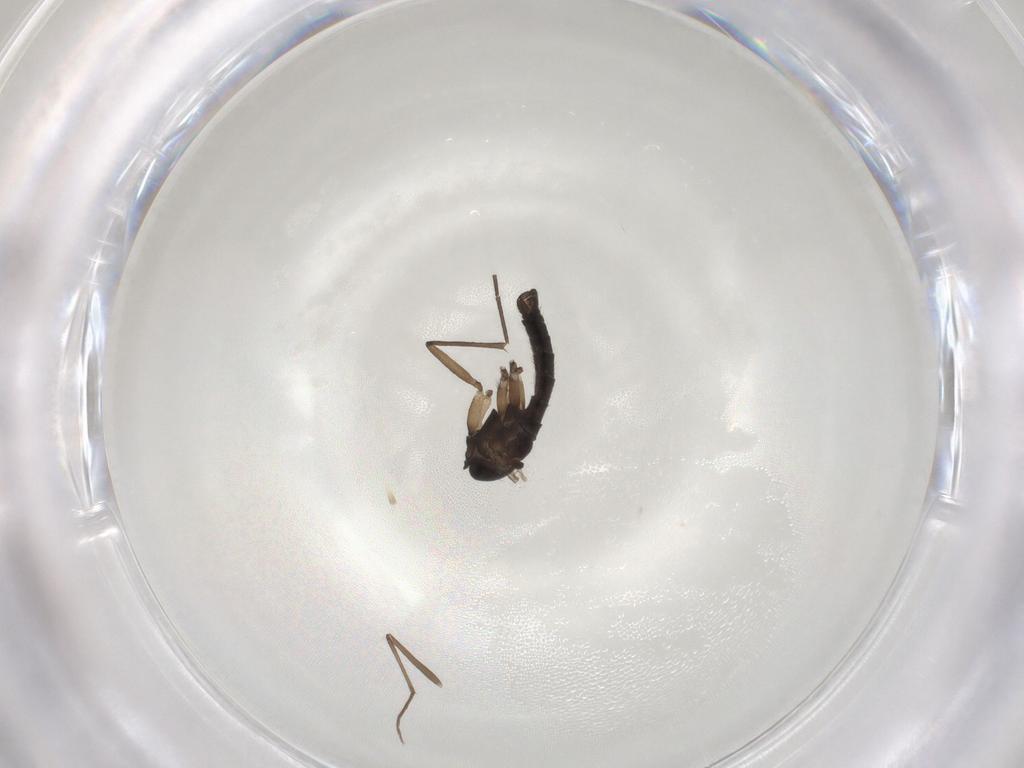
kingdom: Animalia
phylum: Arthropoda
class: Insecta
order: Diptera
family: Sciaridae
